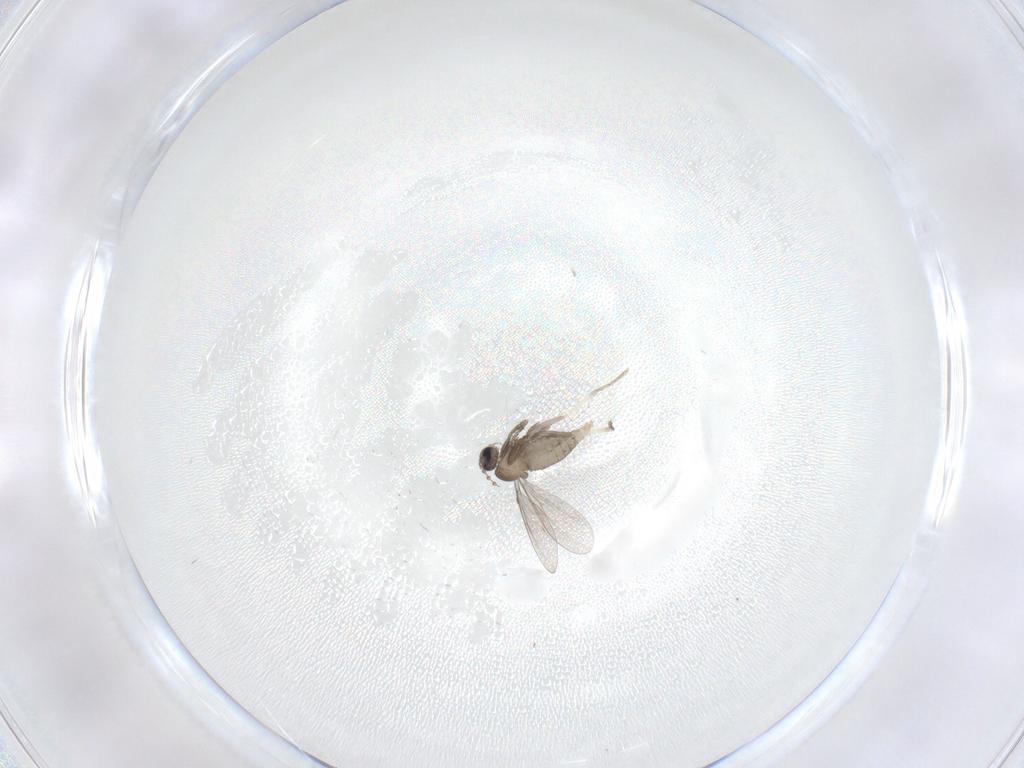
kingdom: Animalia
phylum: Arthropoda
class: Insecta
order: Diptera
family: Cecidomyiidae
